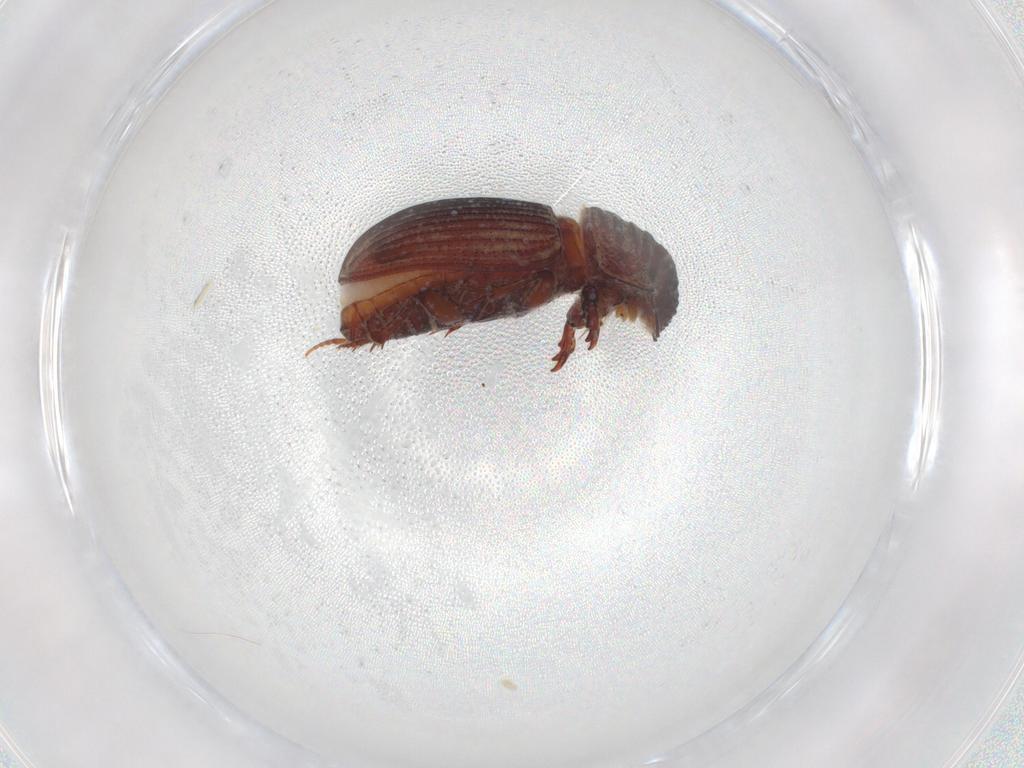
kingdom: Animalia
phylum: Arthropoda
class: Insecta
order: Coleoptera
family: Scarabaeidae
